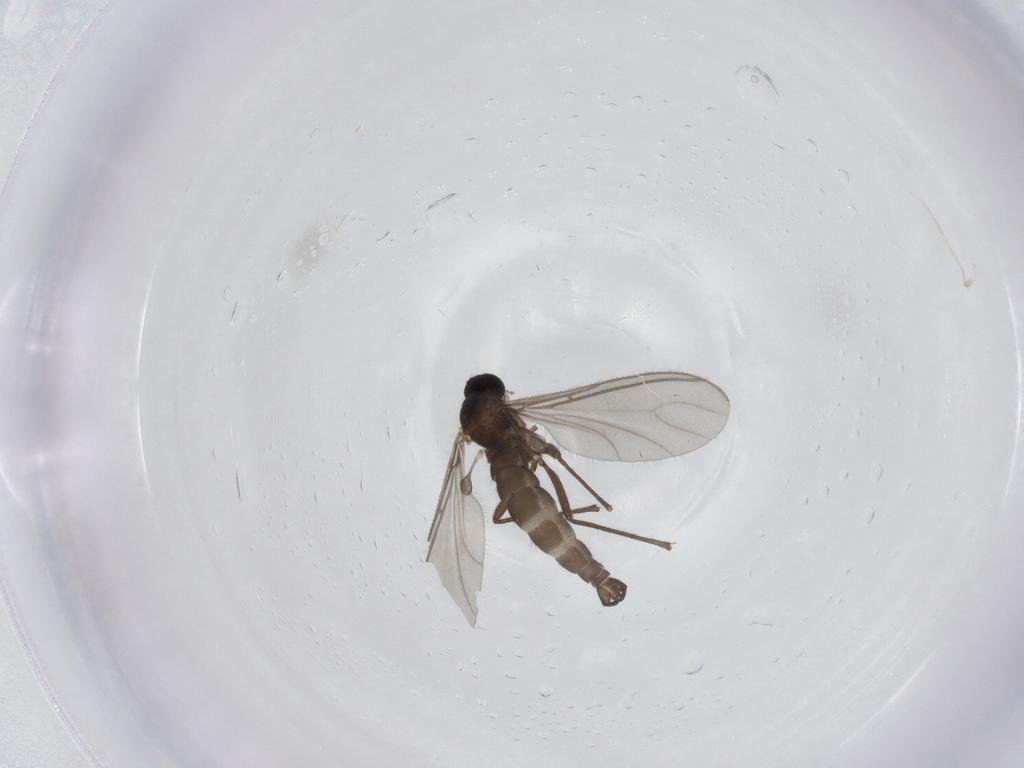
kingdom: Animalia
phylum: Arthropoda
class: Insecta
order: Diptera
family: Sciaridae
